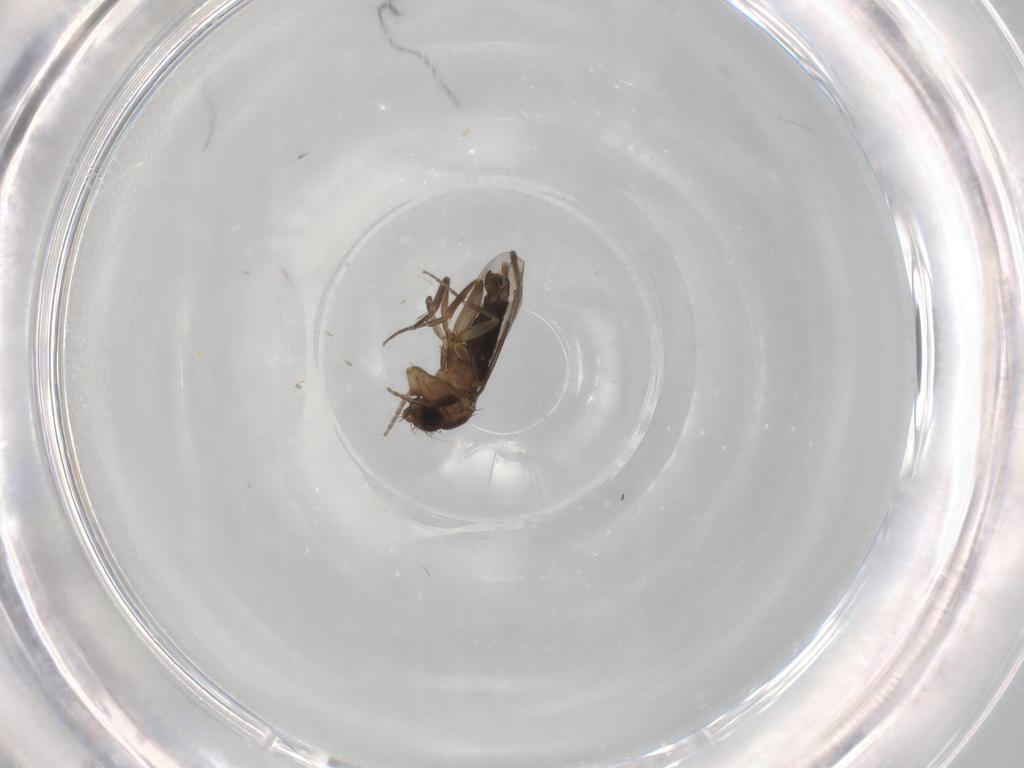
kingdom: Animalia
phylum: Arthropoda
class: Insecta
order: Diptera
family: Phoridae
